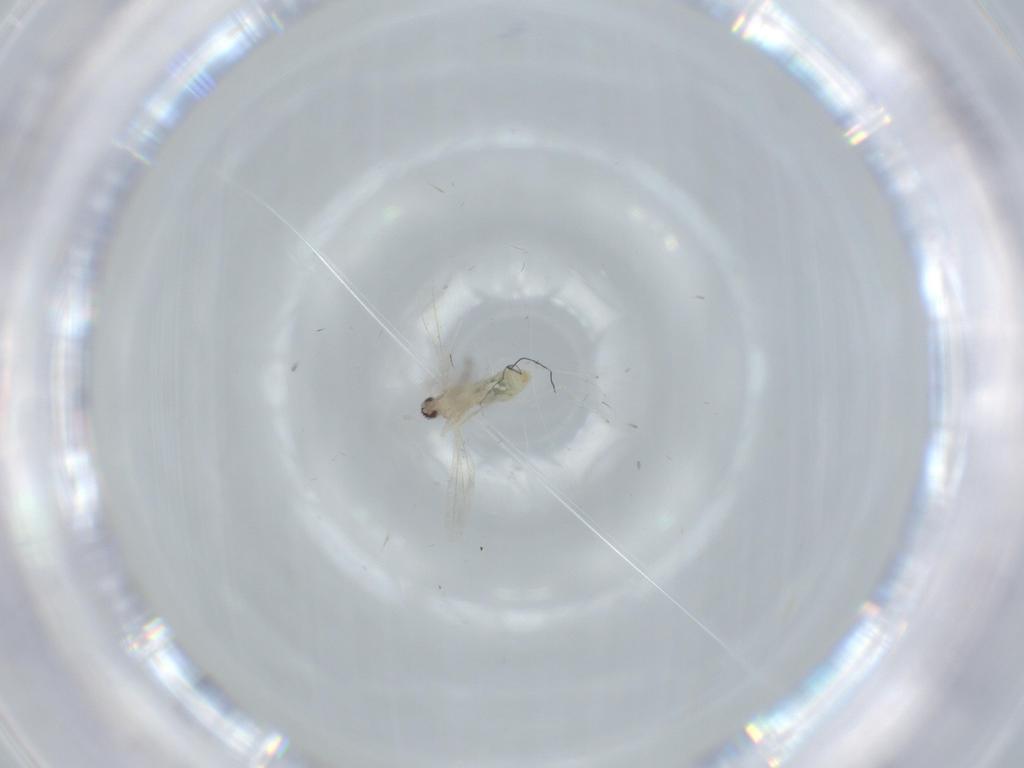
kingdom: Animalia
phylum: Arthropoda
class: Insecta
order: Diptera
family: Cecidomyiidae
